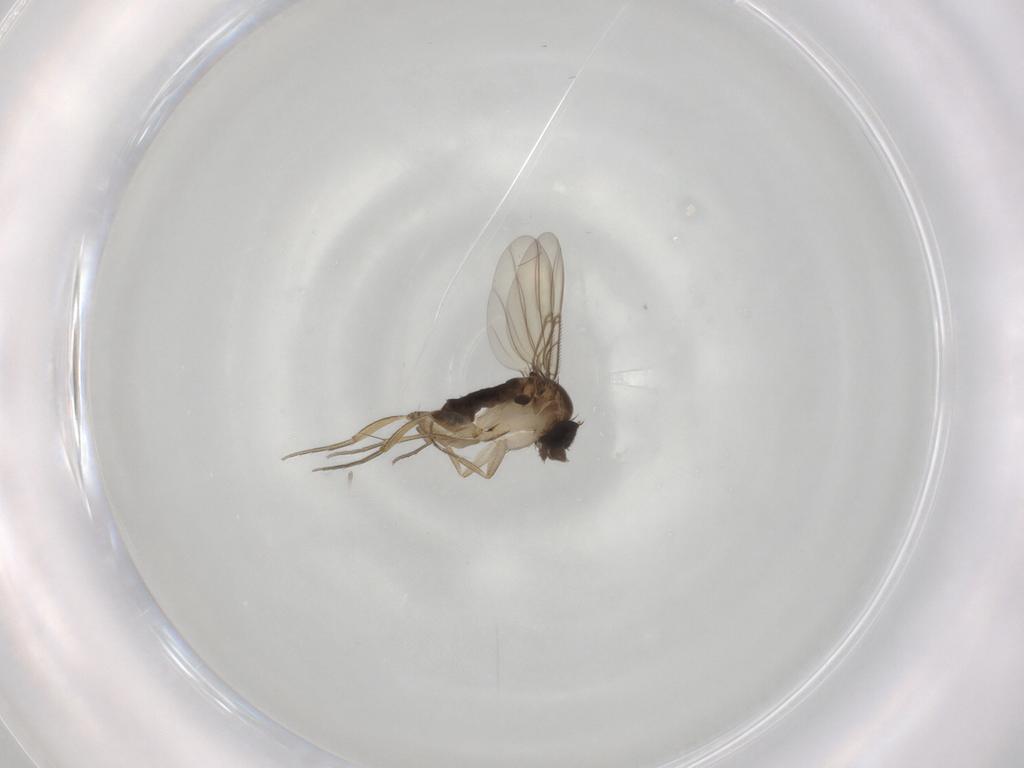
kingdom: Animalia
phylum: Arthropoda
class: Insecta
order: Diptera
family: Phoridae
